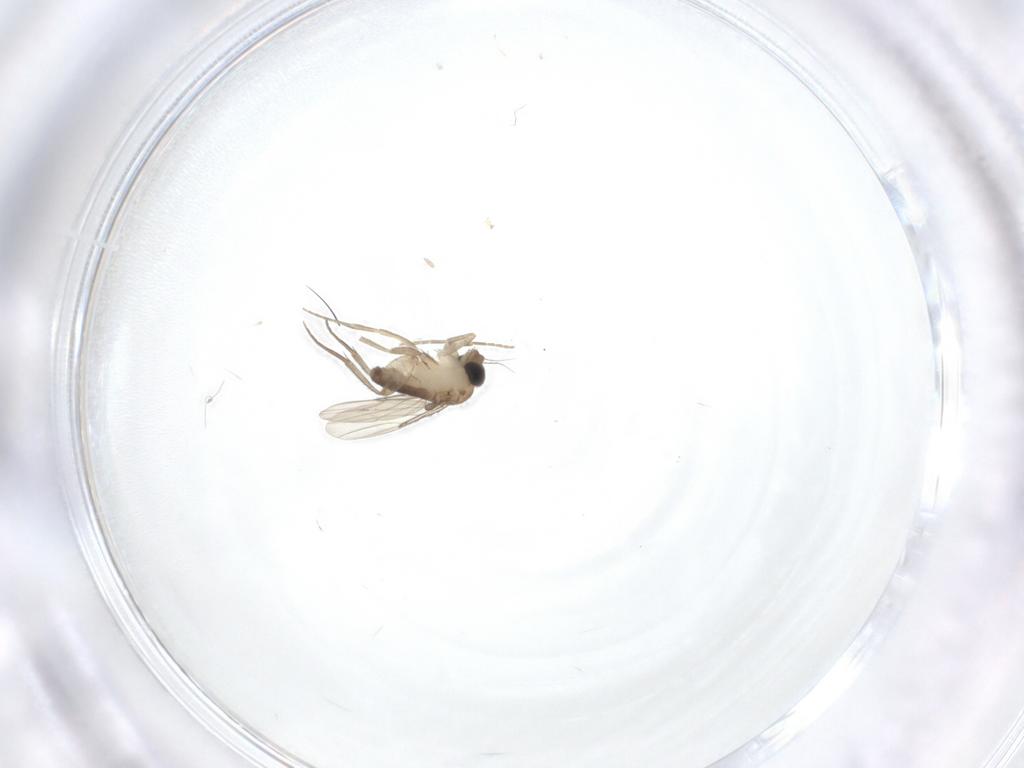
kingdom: Animalia
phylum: Arthropoda
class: Insecta
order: Diptera
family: Phoridae
